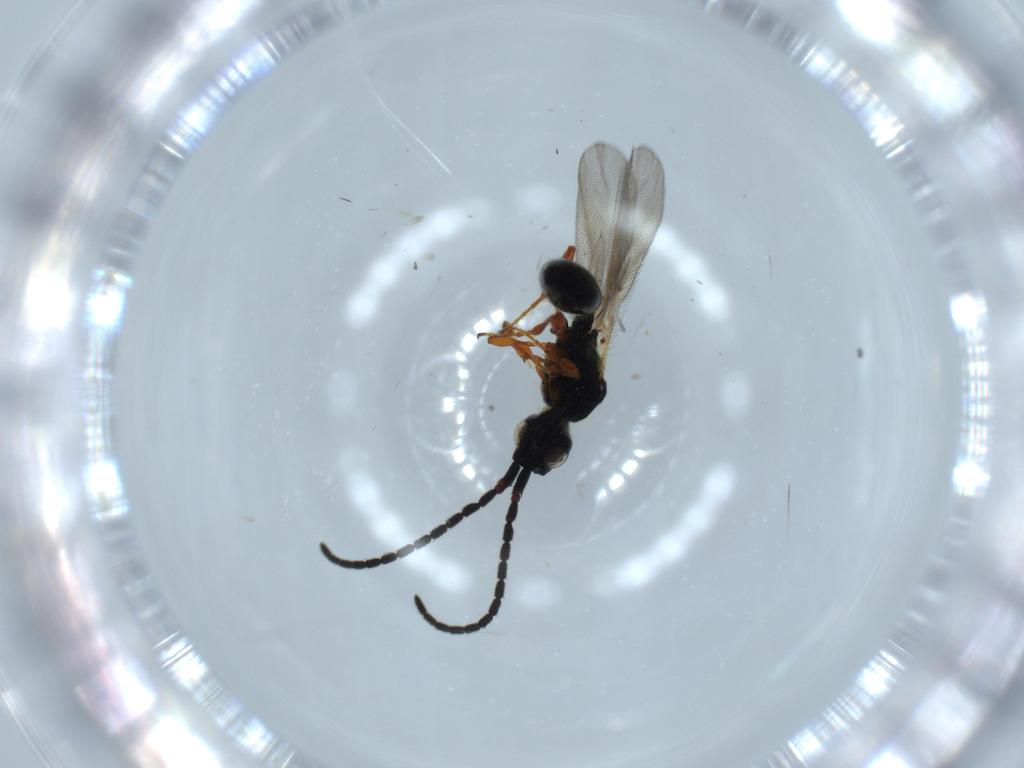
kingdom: Animalia
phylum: Arthropoda
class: Insecta
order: Hymenoptera
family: Diapriidae
